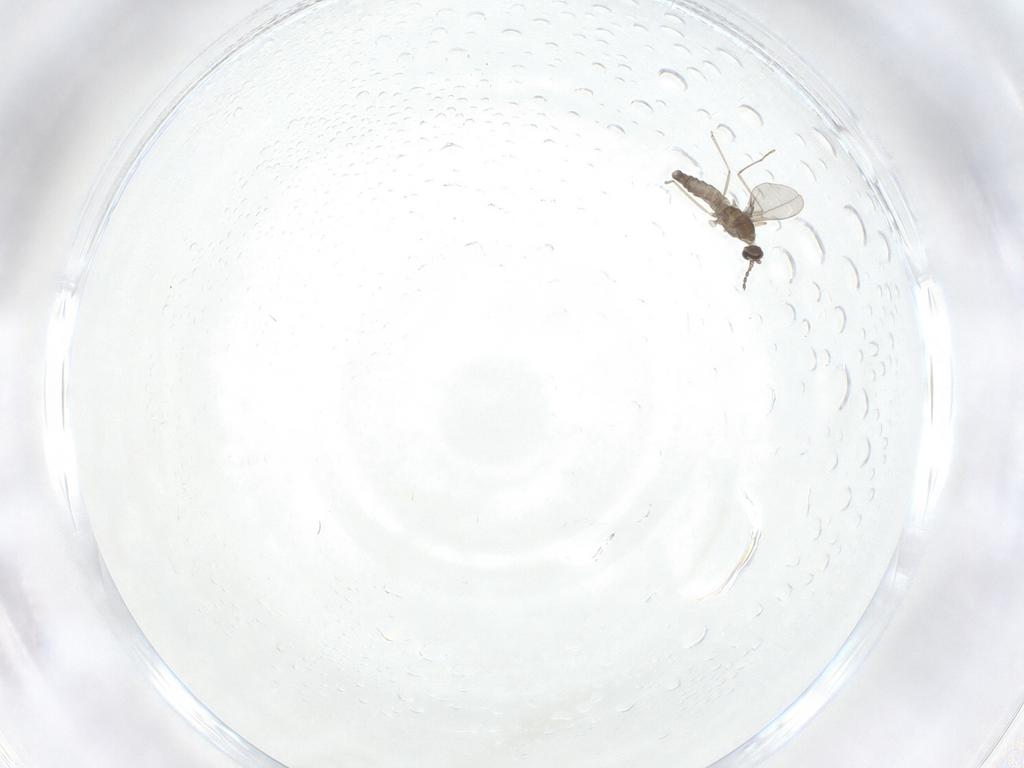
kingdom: Animalia
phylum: Arthropoda
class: Insecta
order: Diptera
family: Cecidomyiidae
